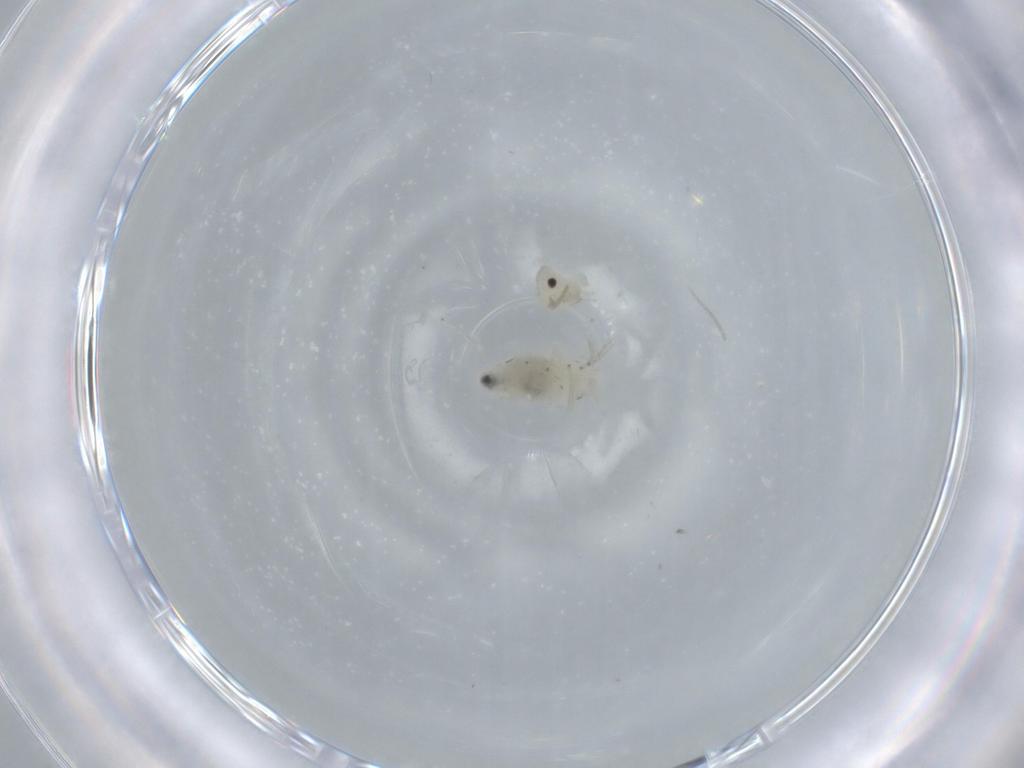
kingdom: Animalia
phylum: Arthropoda
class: Insecta
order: Psocodea
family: Caeciliusidae
